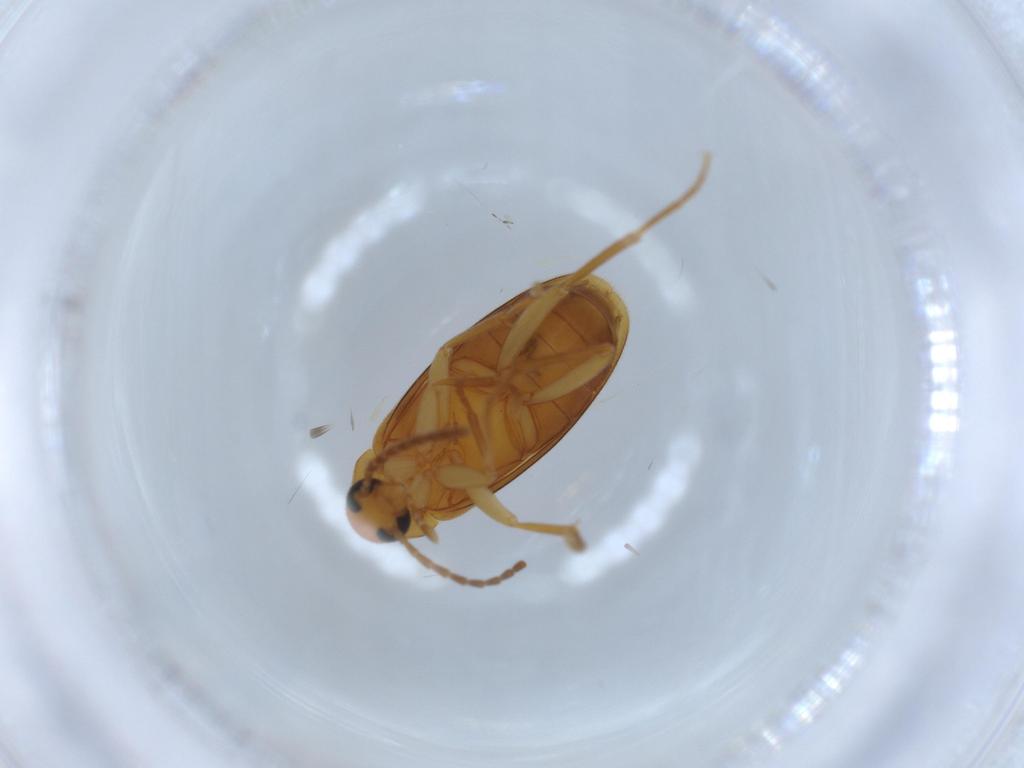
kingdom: Animalia
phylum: Arthropoda
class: Insecta
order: Coleoptera
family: Scraptiidae
